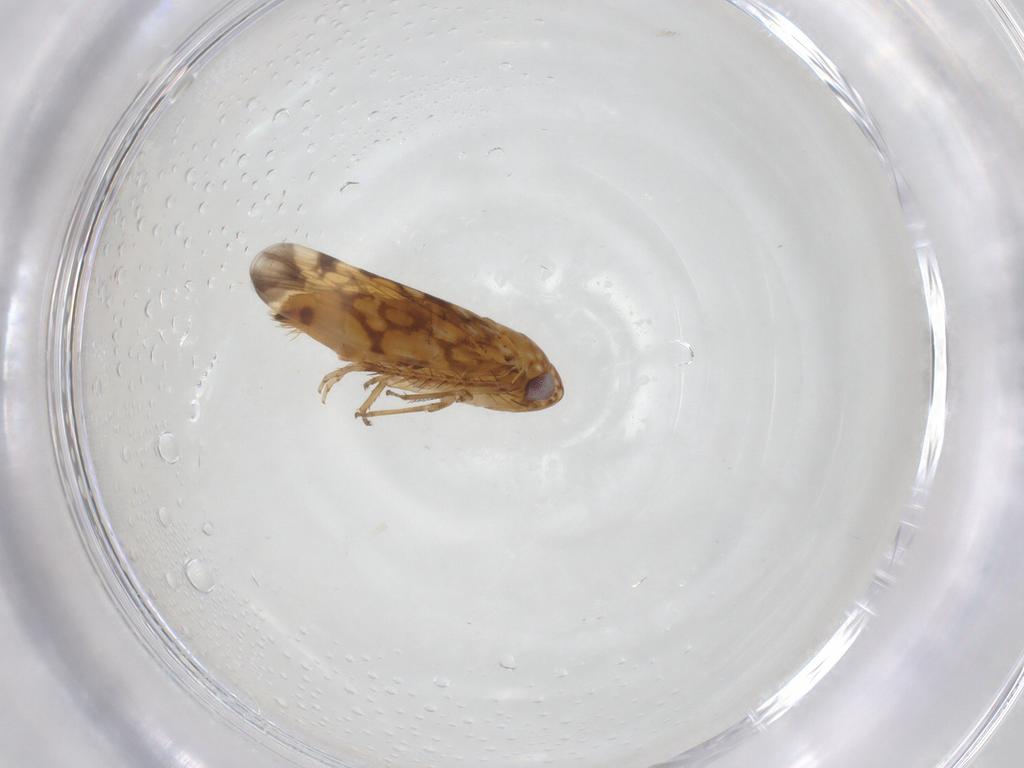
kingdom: Animalia
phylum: Arthropoda
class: Insecta
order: Hemiptera
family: Cicadellidae
